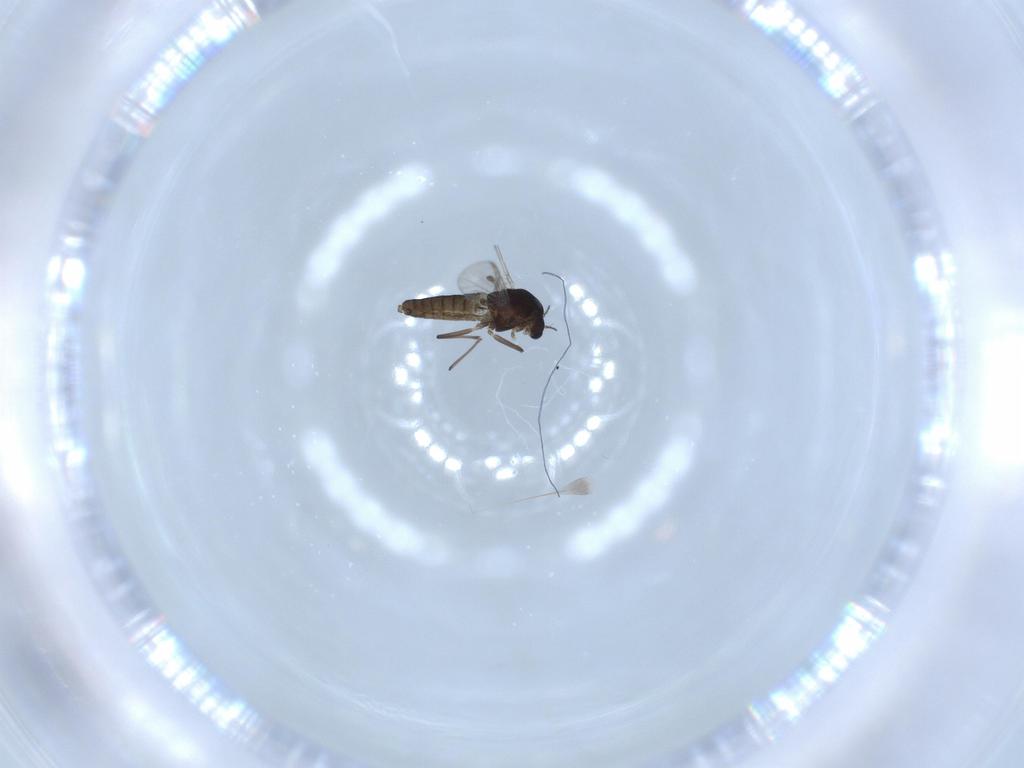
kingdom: Animalia
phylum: Arthropoda
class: Insecta
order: Diptera
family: Chironomidae
